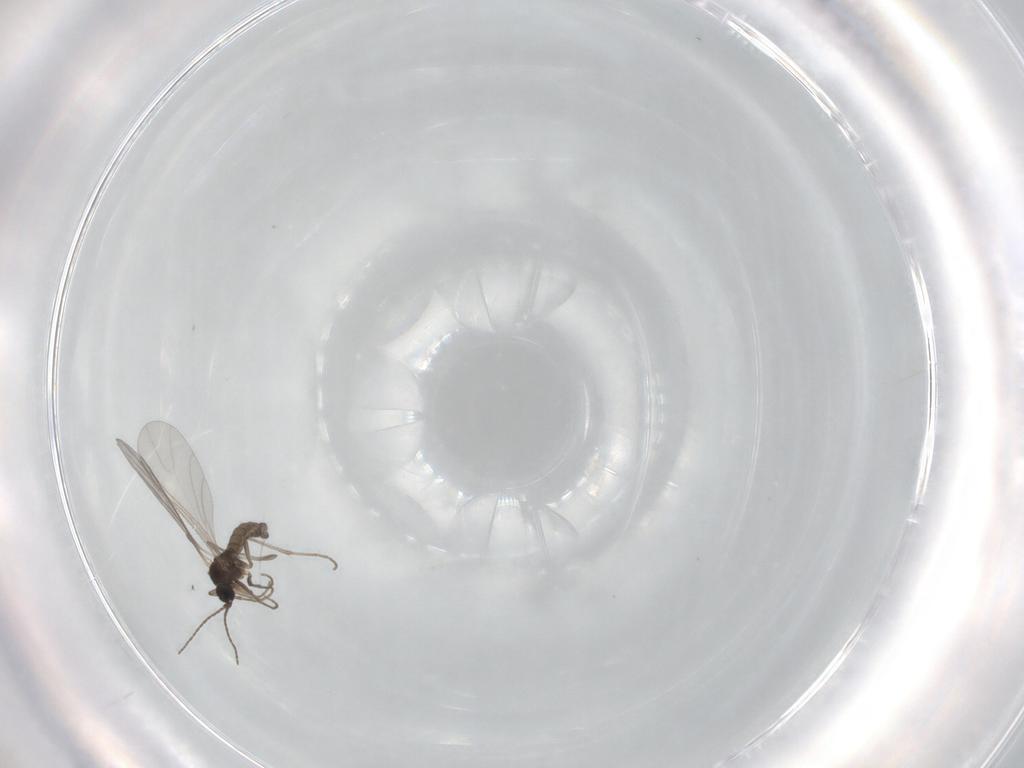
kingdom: Animalia
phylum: Arthropoda
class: Insecta
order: Diptera
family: Sciaridae
